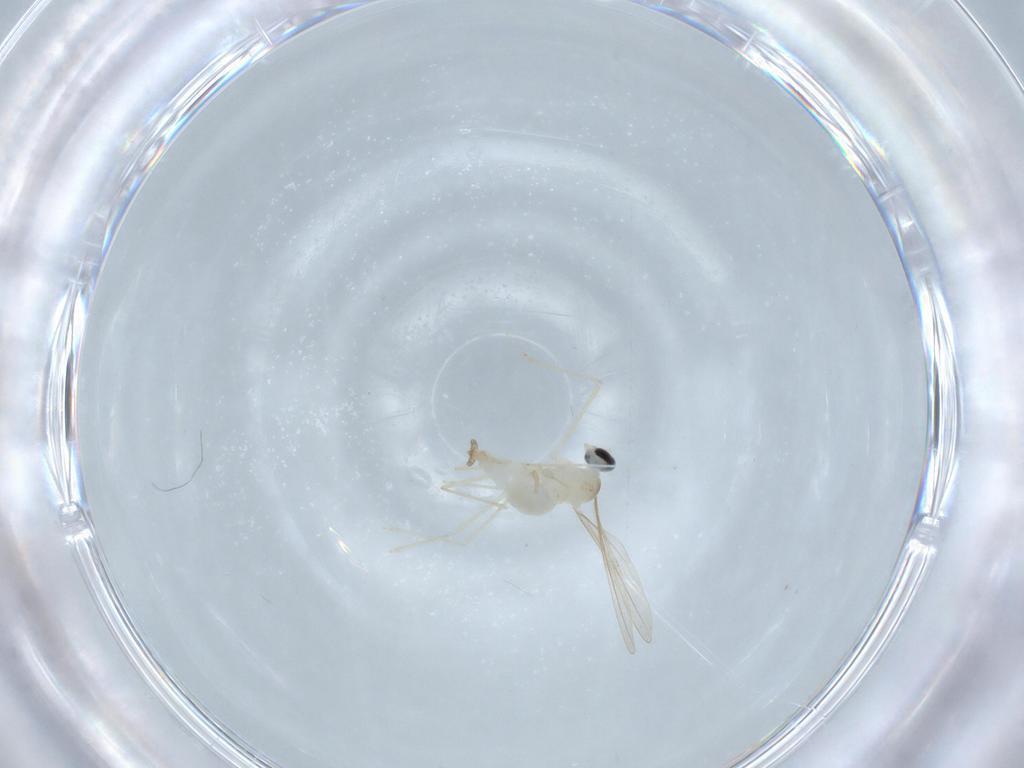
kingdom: Animalia
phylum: Arthropoda
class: Insecta
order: Diptera
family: Cecidomyiidae
